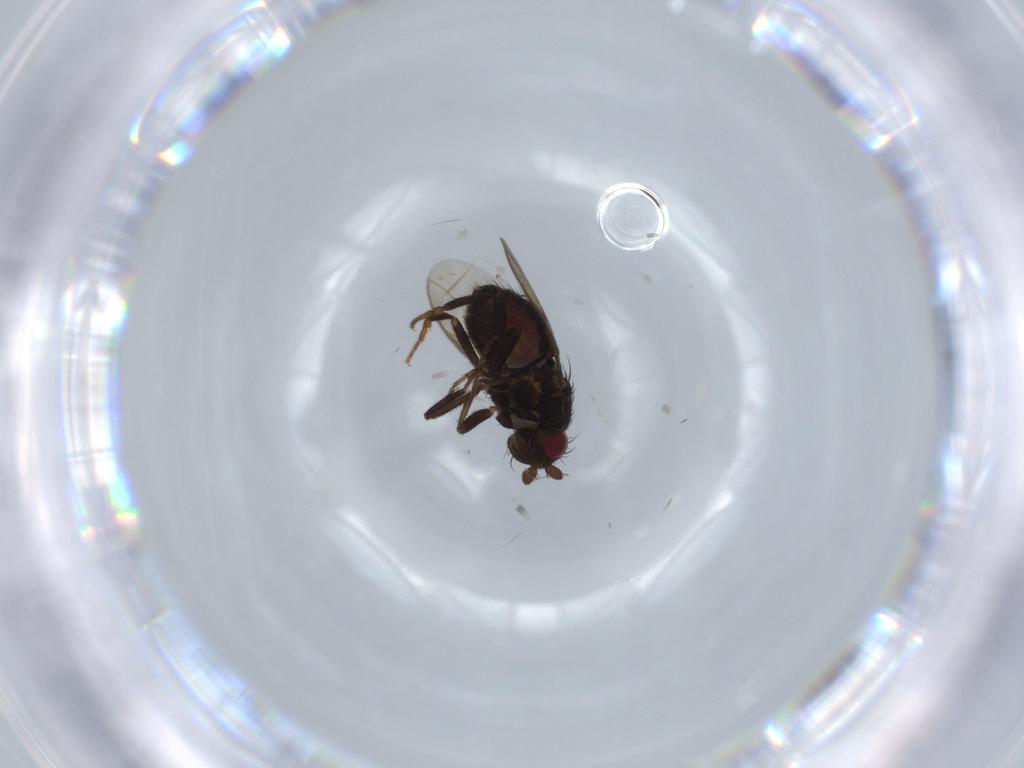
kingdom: Animalia
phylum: Arthropoda
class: Insecta
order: Diptera
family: Sphaeroceridae
